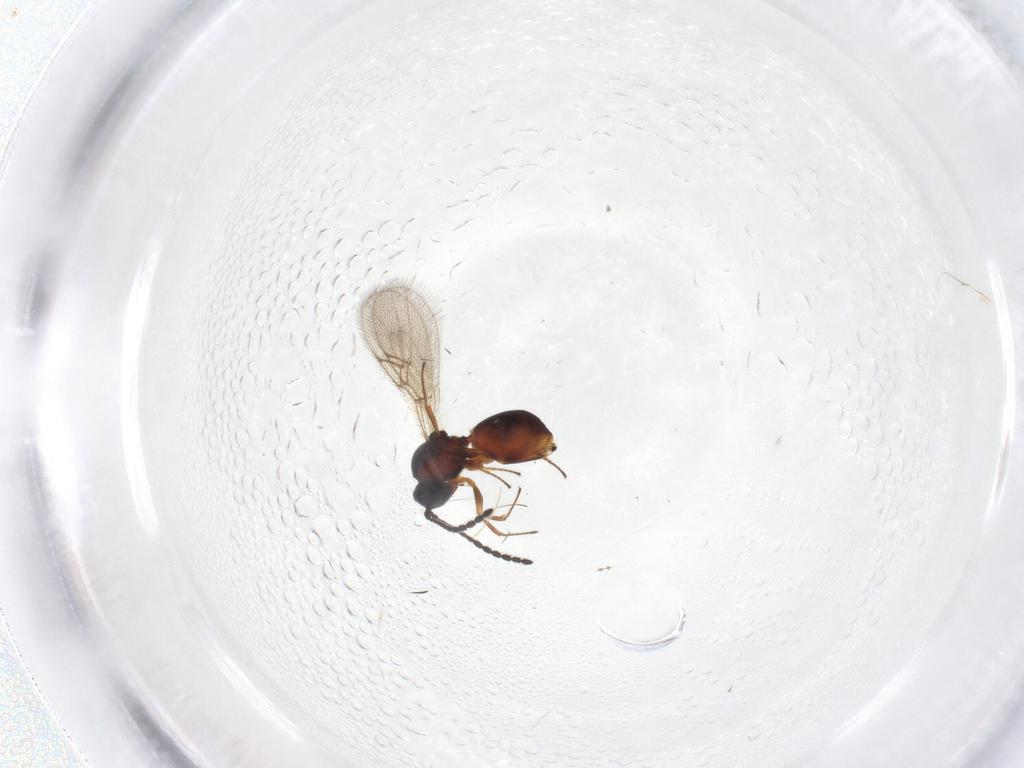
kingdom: Animalia
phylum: Arthropoda
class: Insecta
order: Hymenoptera
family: Figitidae
